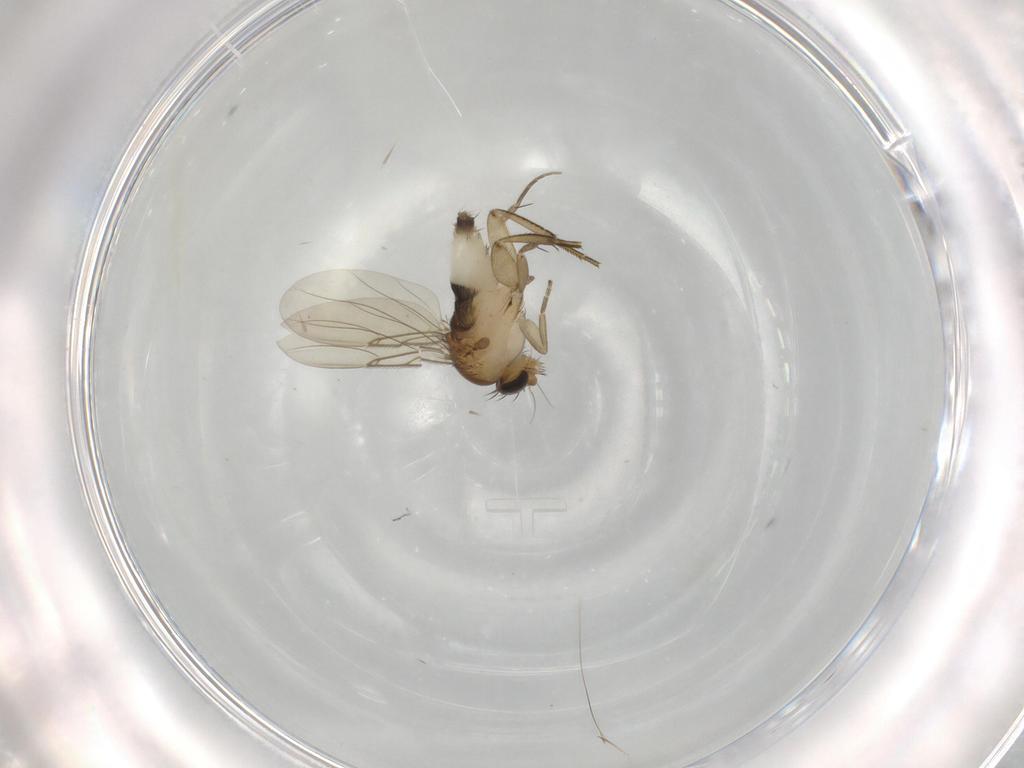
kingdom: Animalia
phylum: Arthropoda
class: Insecta
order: Diptera
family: Phoridae
